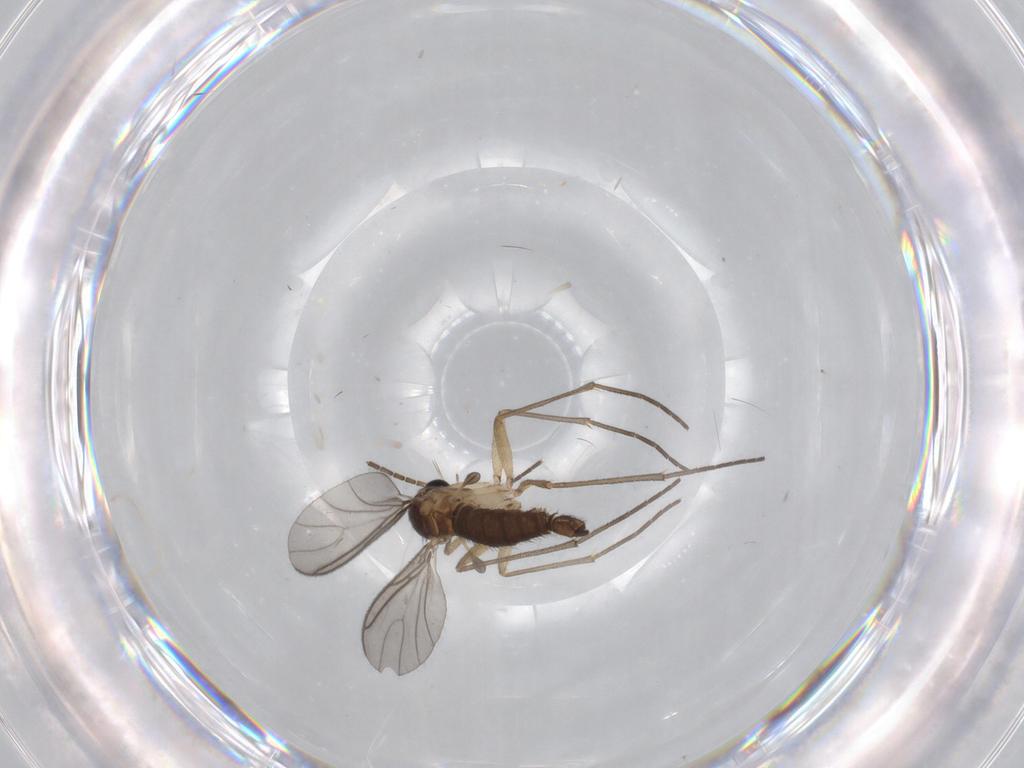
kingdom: Animalia
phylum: Arthropoda
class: Insecta
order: Diptera
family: Sciaridae
